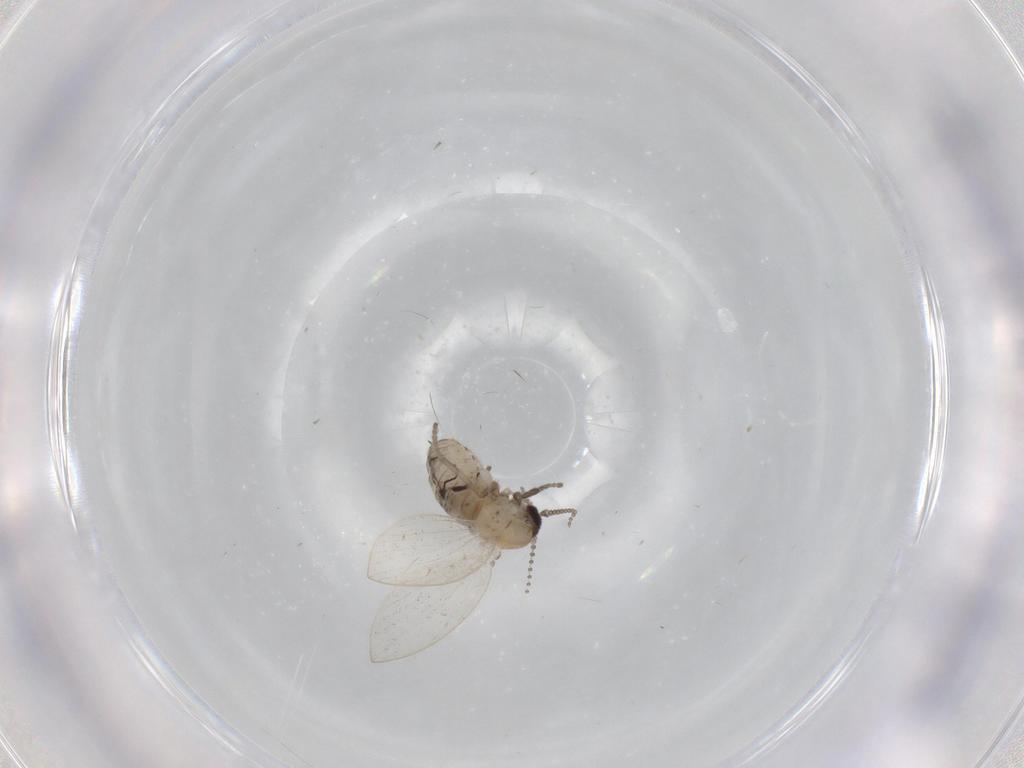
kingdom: Animalia
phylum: Arthropoda
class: Insecta
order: Diptera
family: Psychodidae
